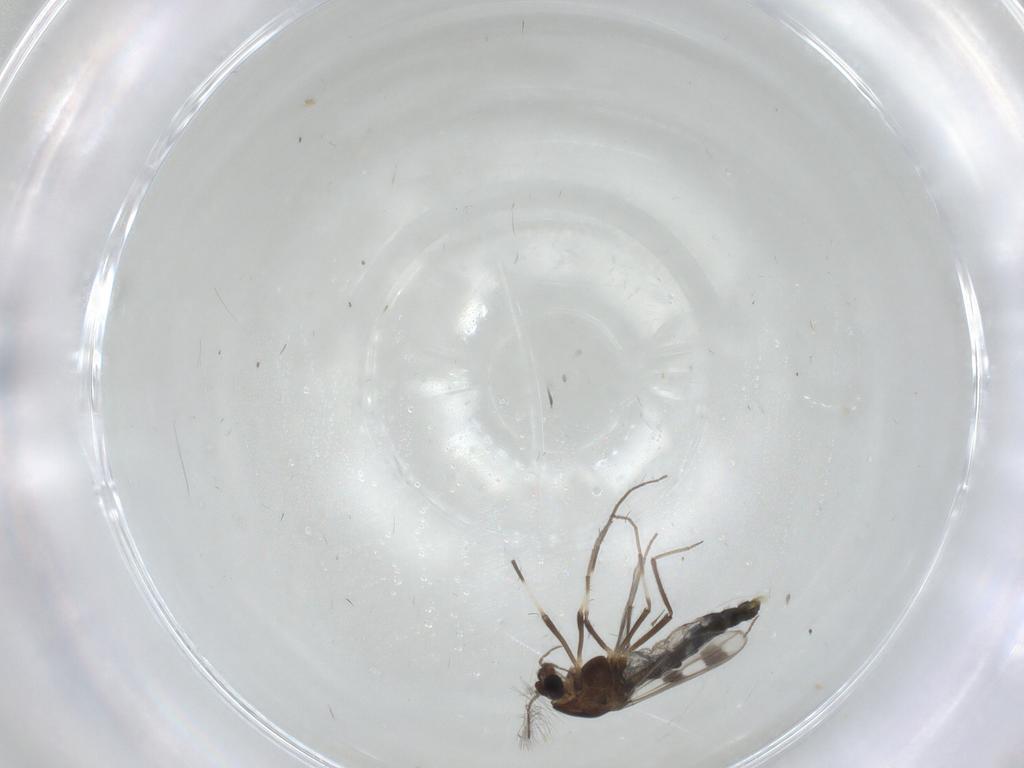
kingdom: Animalia
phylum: Arthropoda
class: Insecta
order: Diptera
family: Chironomidae
